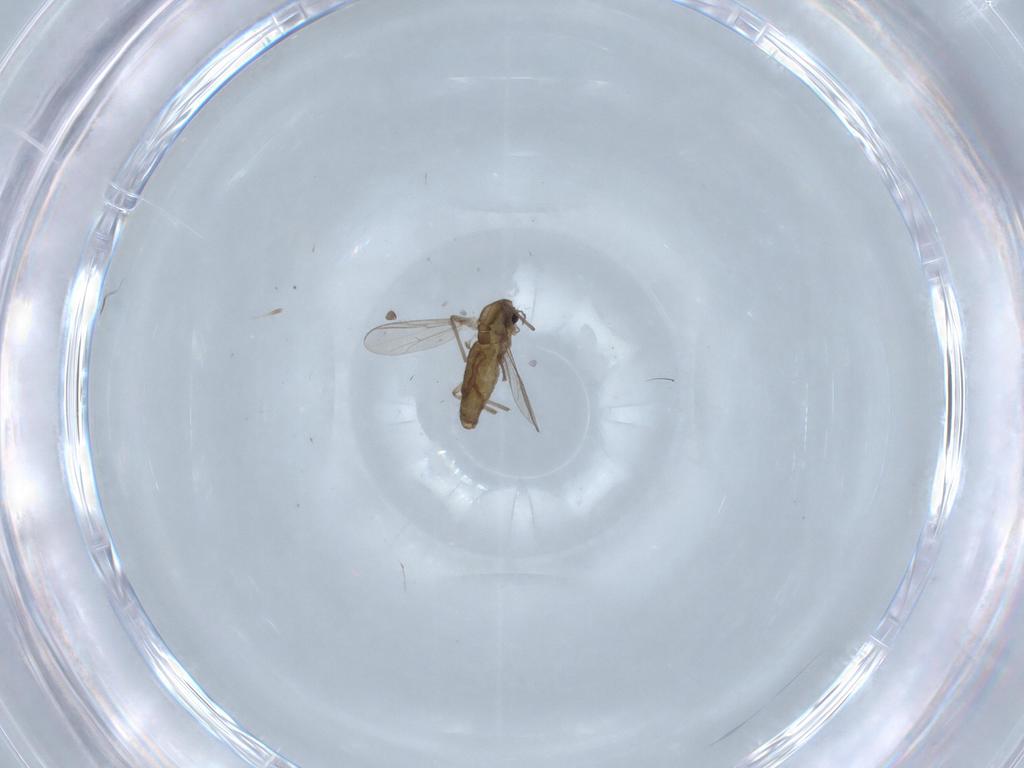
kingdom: Animalia
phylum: Arthropoda
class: Insecta
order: Diptera
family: Chironomidae
